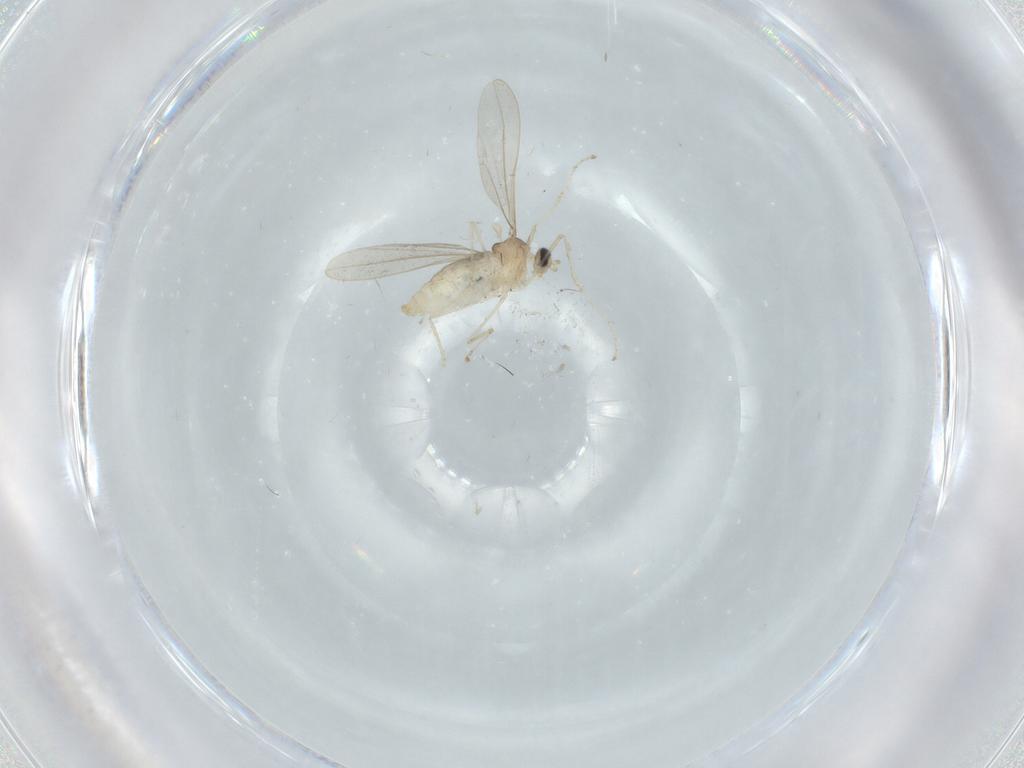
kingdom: Animalia
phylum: Arthropoda
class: Insecta
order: Diptera
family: Cecidomyiidae
